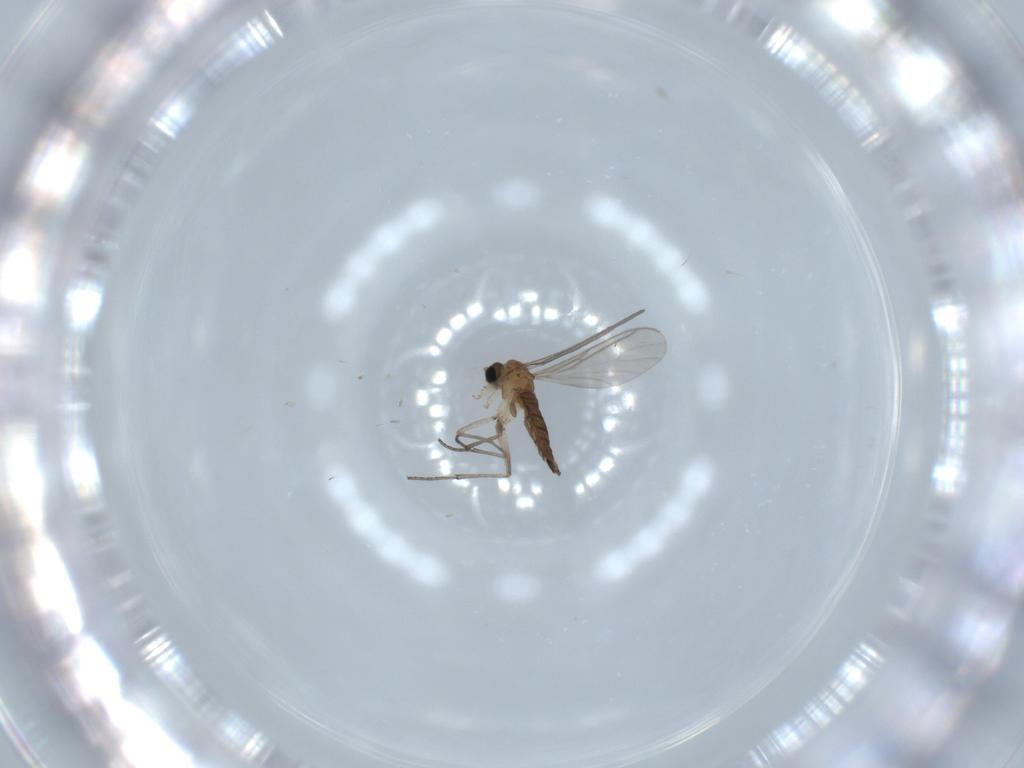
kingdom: Animalia
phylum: Arthropoda
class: Insecta
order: Diptera
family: Sciaridae
